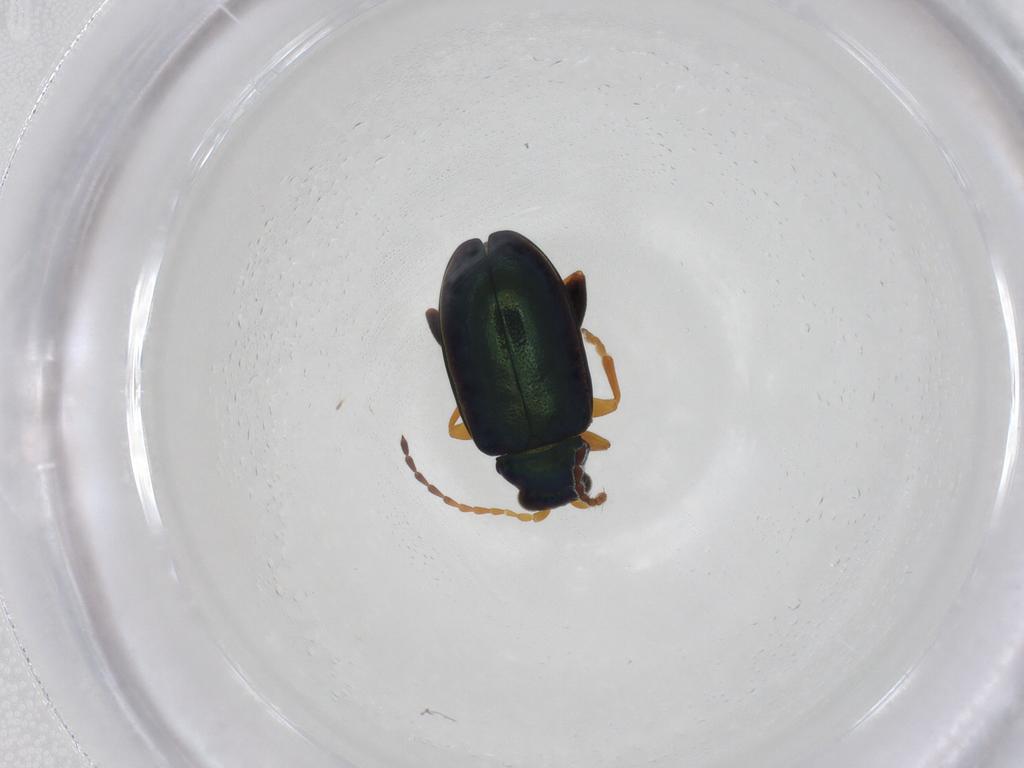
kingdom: Animalia
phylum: Arthropoda
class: Insecta
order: Coleoptera
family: Chrysomelidae
